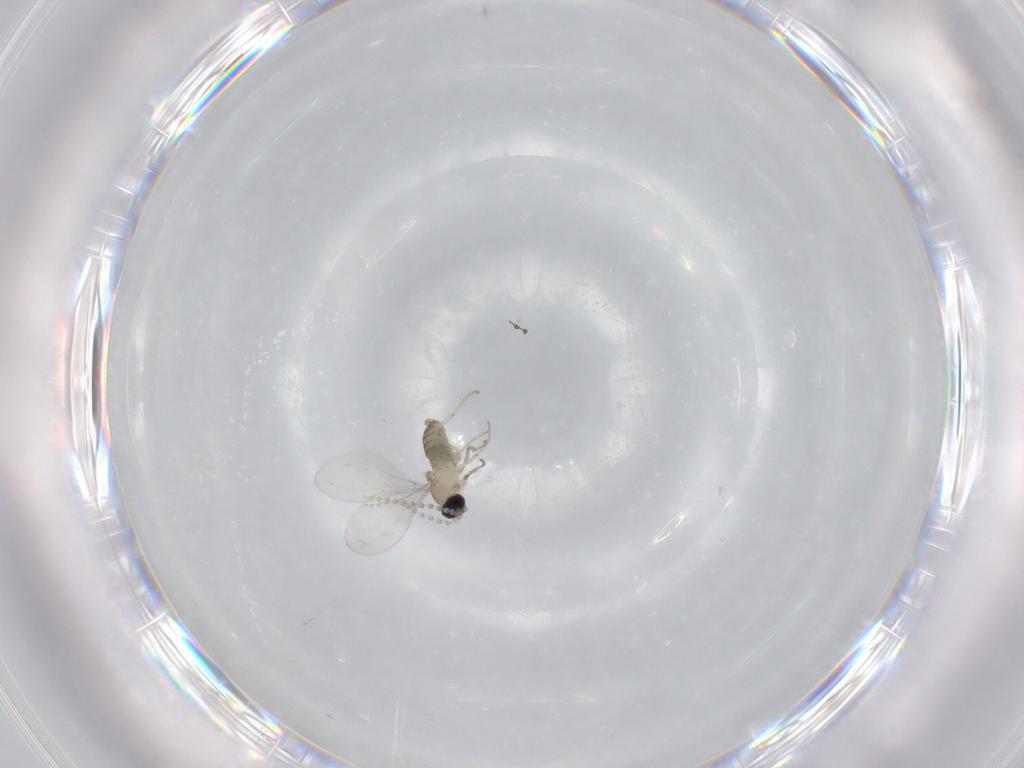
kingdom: Animalia
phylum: Arthropoda
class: Insecta
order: Diptera
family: Cecidomyiidae
